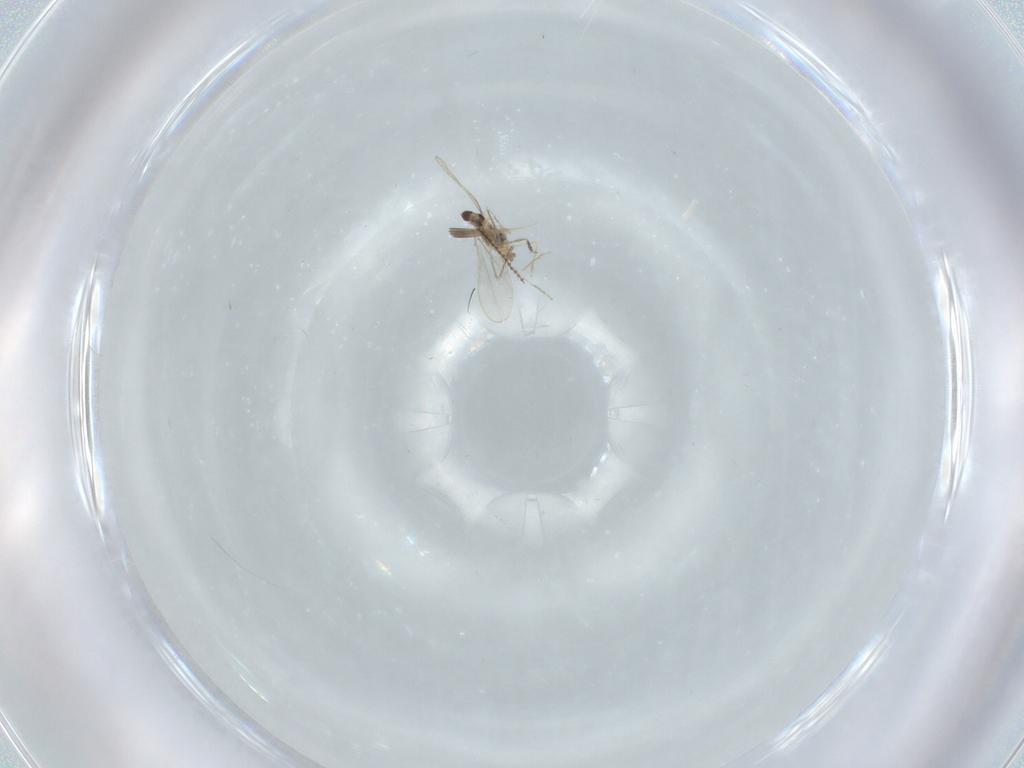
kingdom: Animalia
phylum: Arthropoda
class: Insecta
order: Diptera
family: Cecidomyiidae
